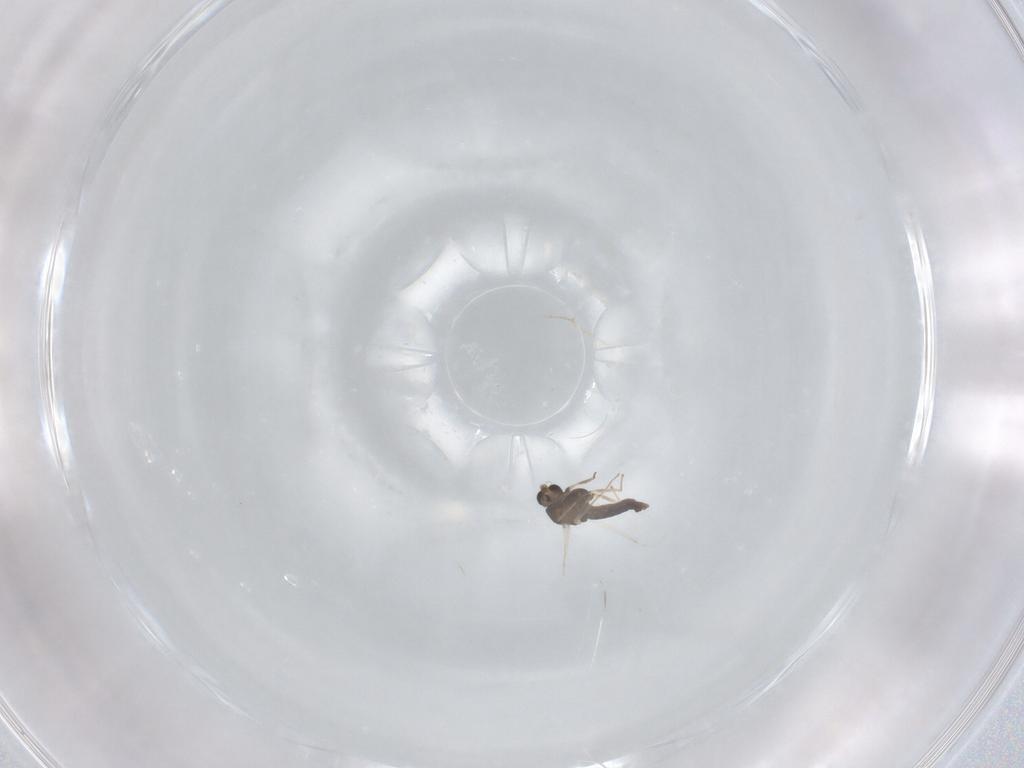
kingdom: Animalia
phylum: Arthropoda
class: Insecta
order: Diptera
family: Chironomidae
